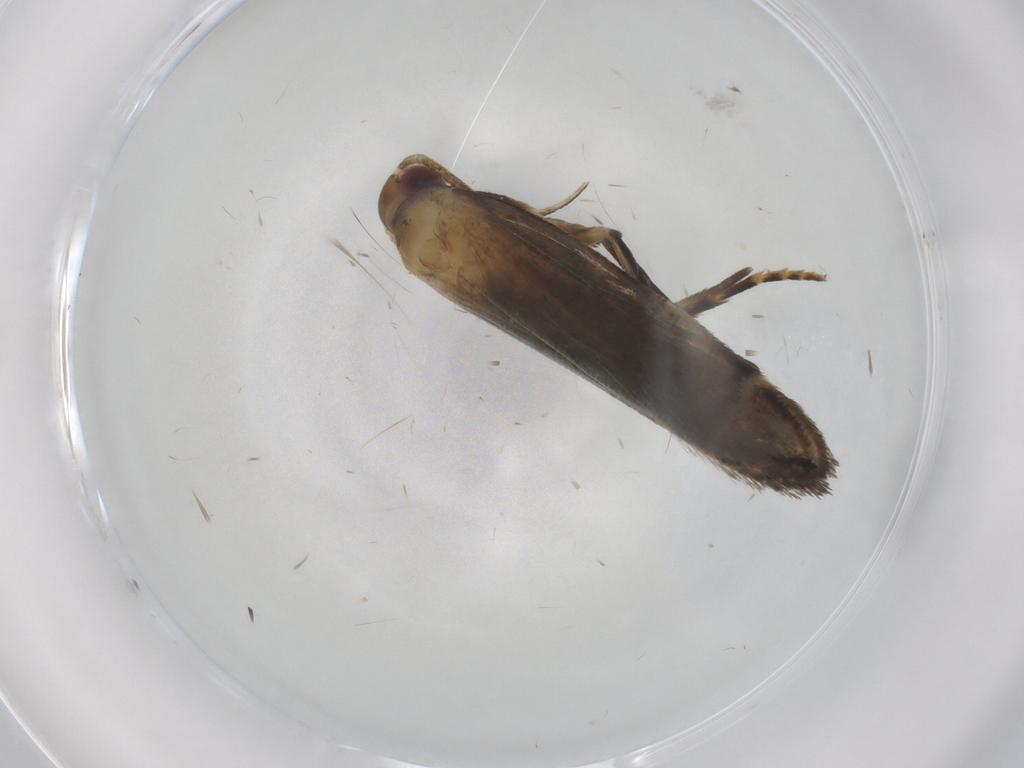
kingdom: Animalia
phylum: Arthropoda
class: Insecta
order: Lepidoptera
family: Gelechiidae
